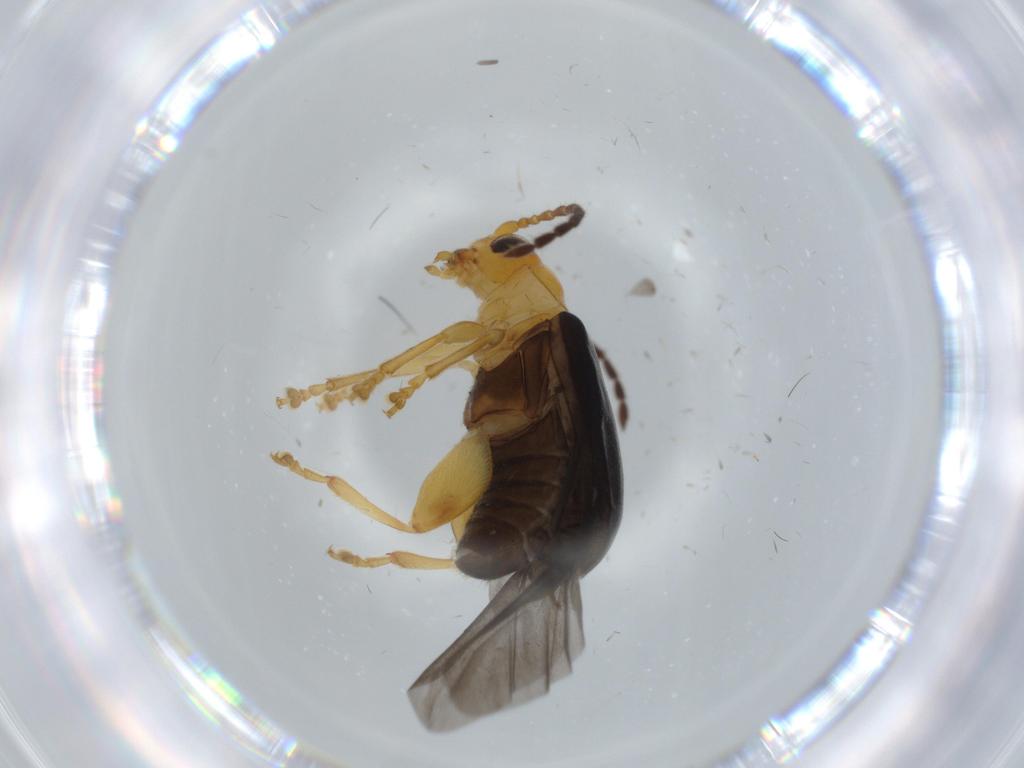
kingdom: Animalia
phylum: Arthropoda
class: Insecta
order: Coleoptera
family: Chrysomelidae
